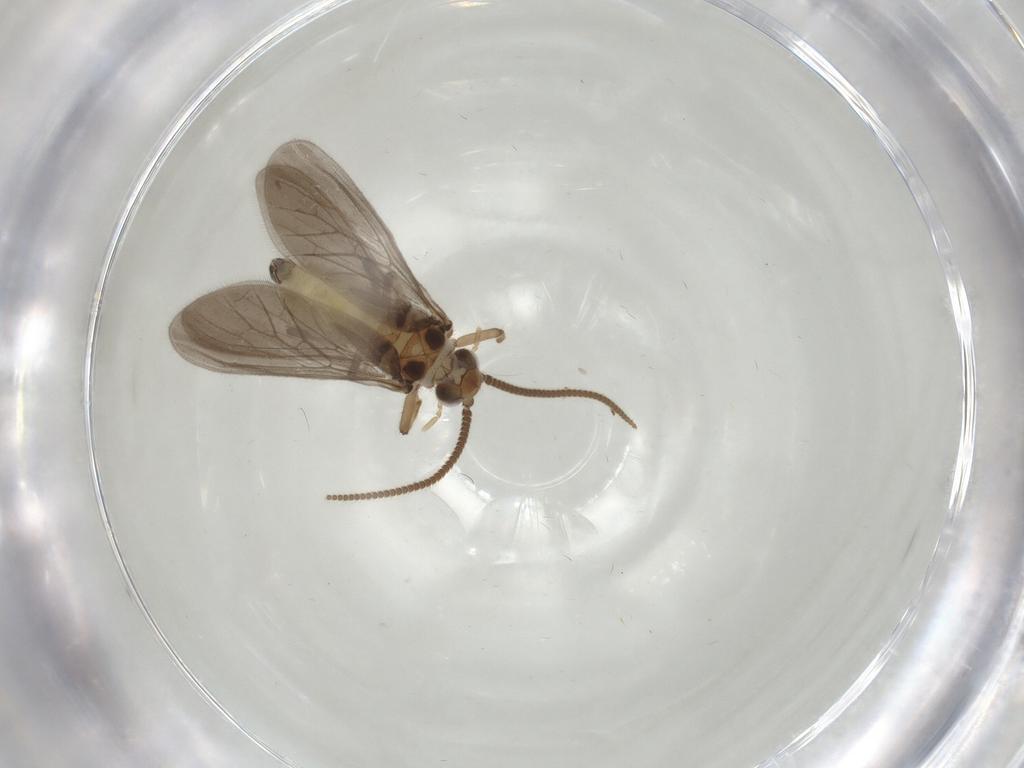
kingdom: Animalia
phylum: Arthropoda
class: Insecta
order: Neuroptera
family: Coniopterygidae
